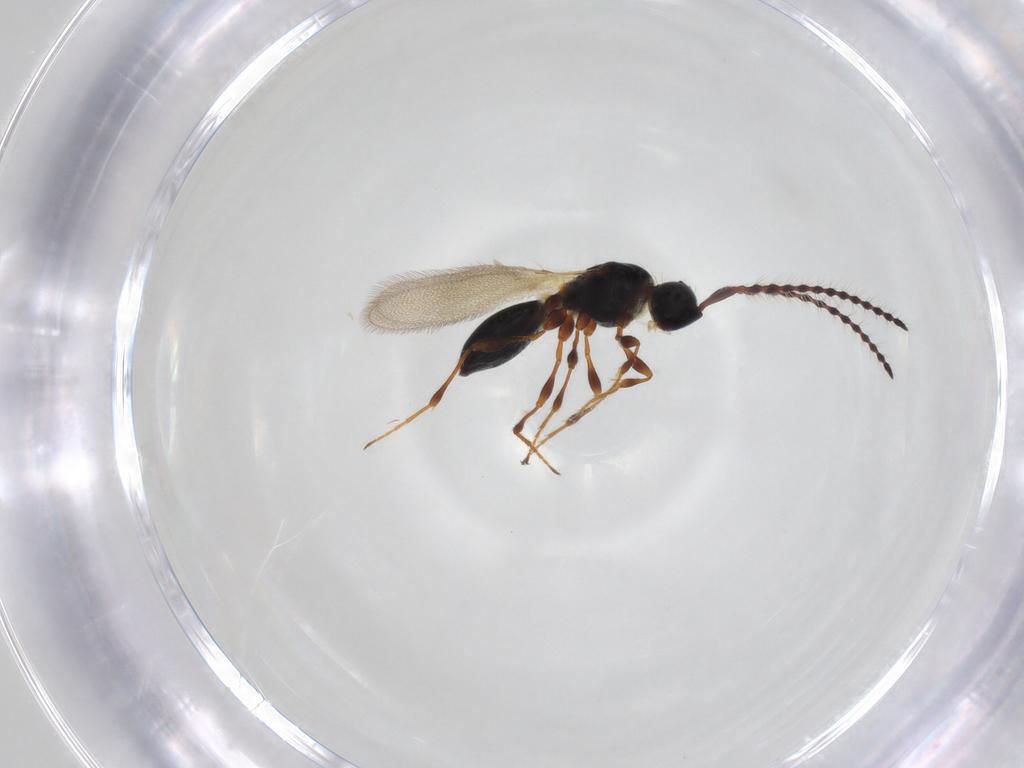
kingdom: Animalia
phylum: Arthropoda
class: Insecta
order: Hymenoptera
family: Diapriidae
